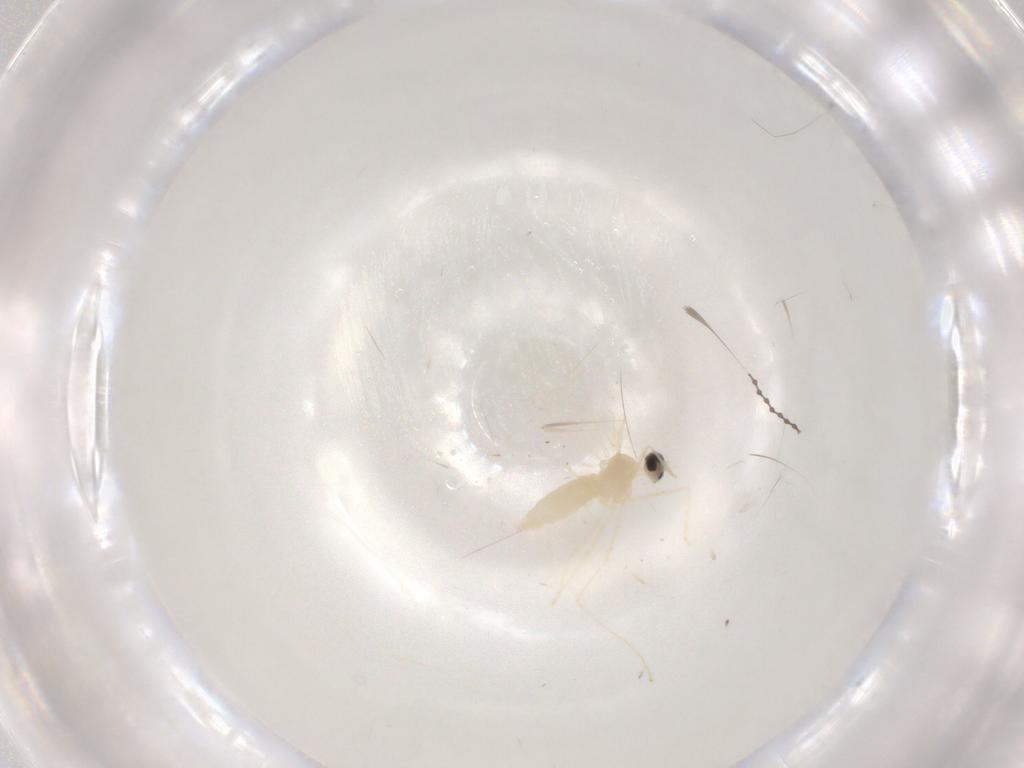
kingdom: Animalia
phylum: Arthropoda
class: Insecta
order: Diptera
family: Cecidomyiidae
